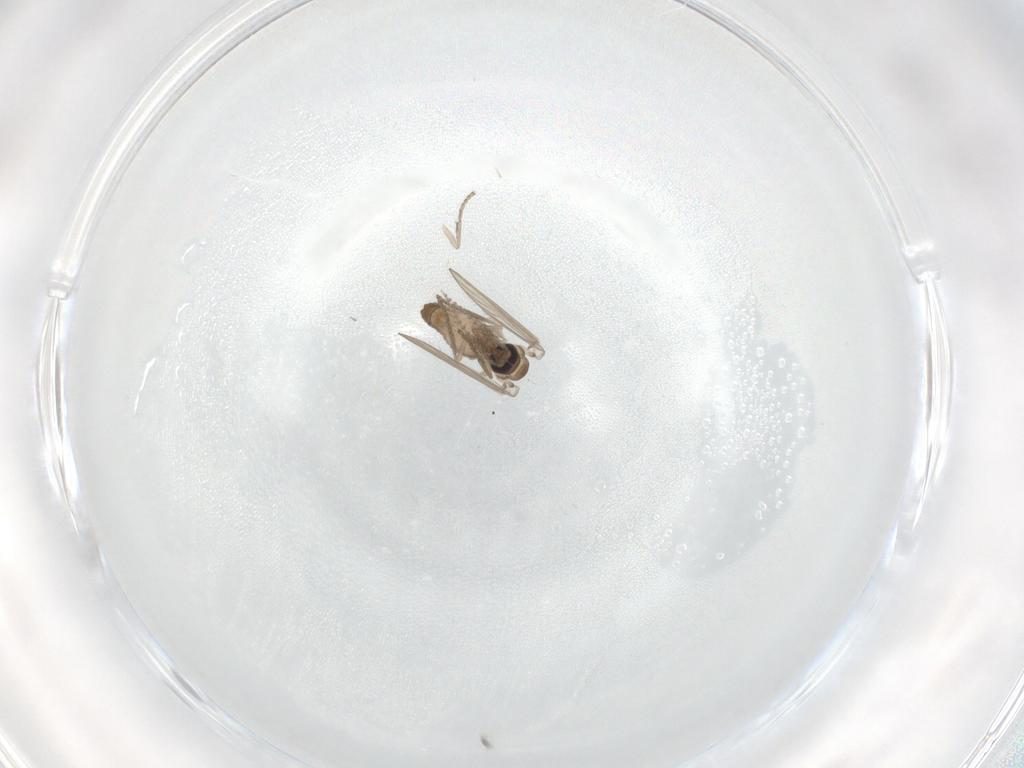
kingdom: Animalia
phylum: Arthropoda
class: Insecta
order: Diptera
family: Psychodidae
